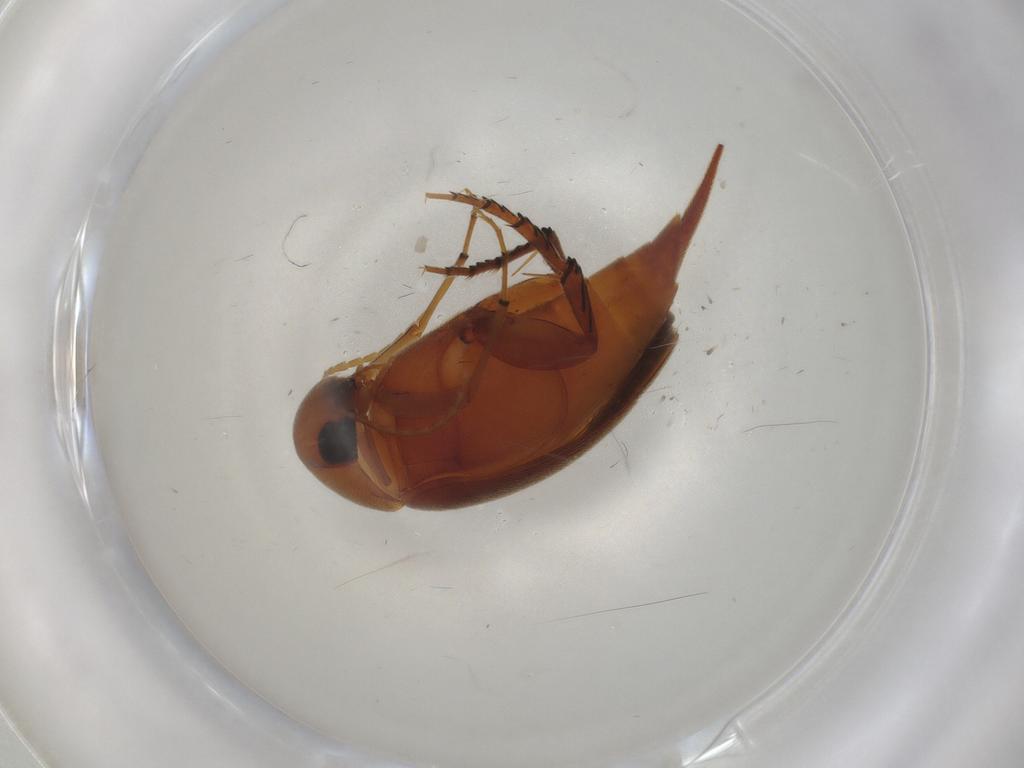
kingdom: Animalia
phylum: Arthropoda
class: Insecta
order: Coleoptera
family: Mordellidae
